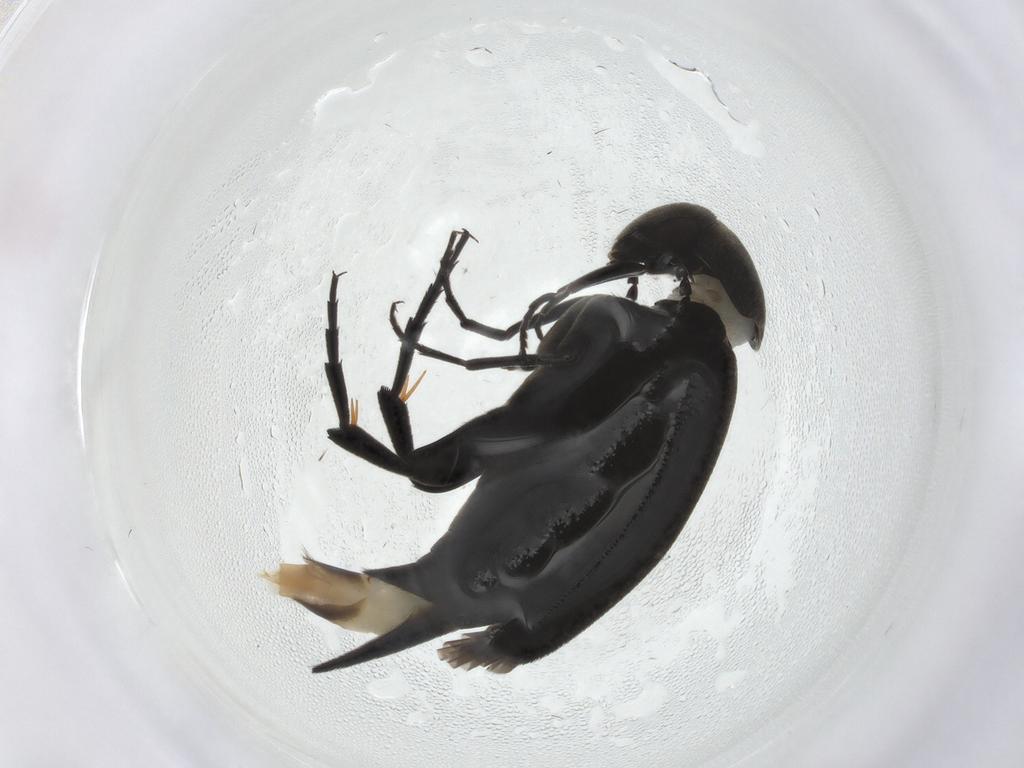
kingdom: Animalia
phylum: Arthropoda
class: Insecta
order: Coleoptera
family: Mordellidae
